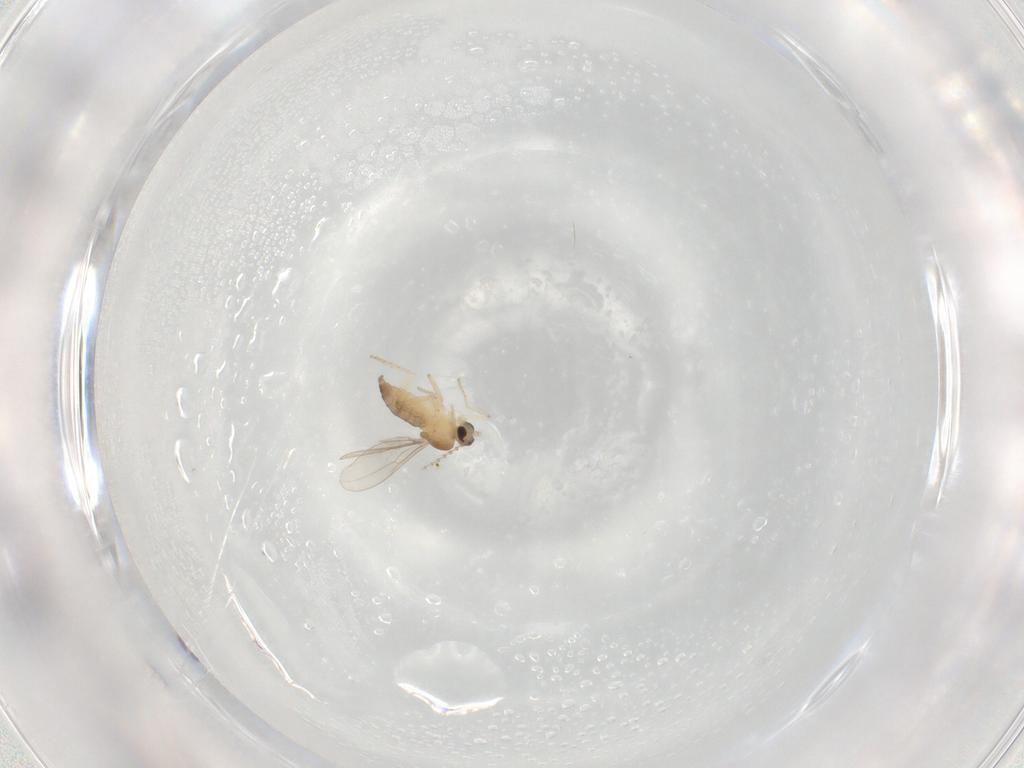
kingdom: Animalia
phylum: Arthropoda
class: Insecta
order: Diptera
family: Cecidomyiidae
